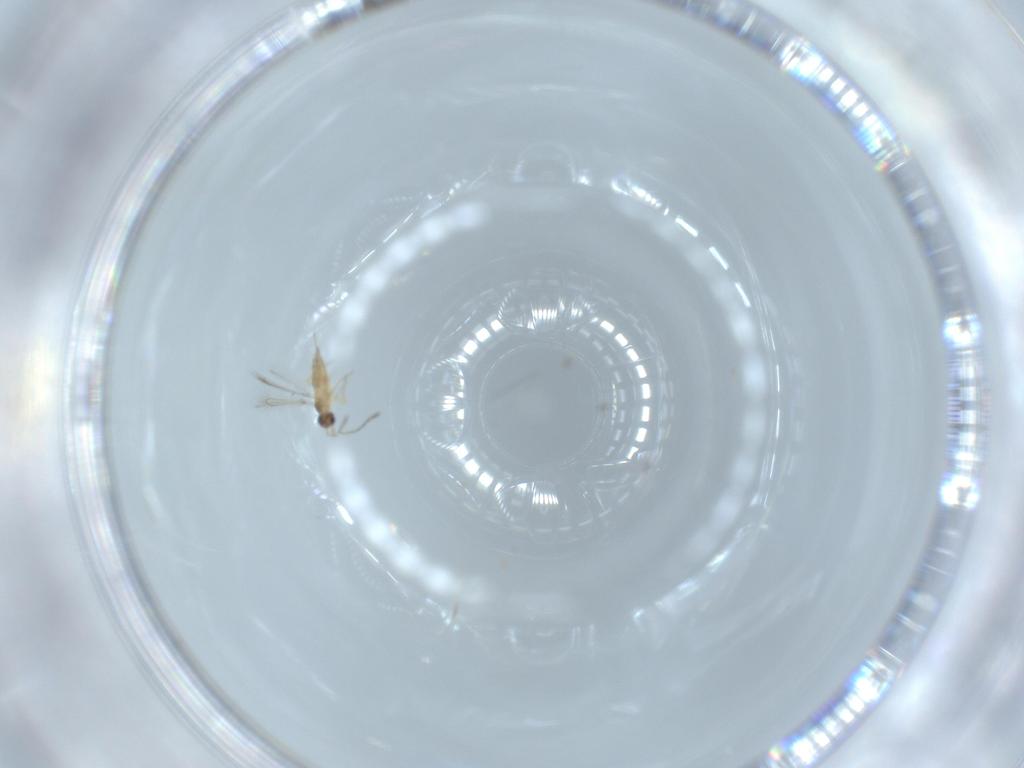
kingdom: Animalia
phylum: Arthropoda
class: Insecta
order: Hymenoptera
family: Mymaridae
